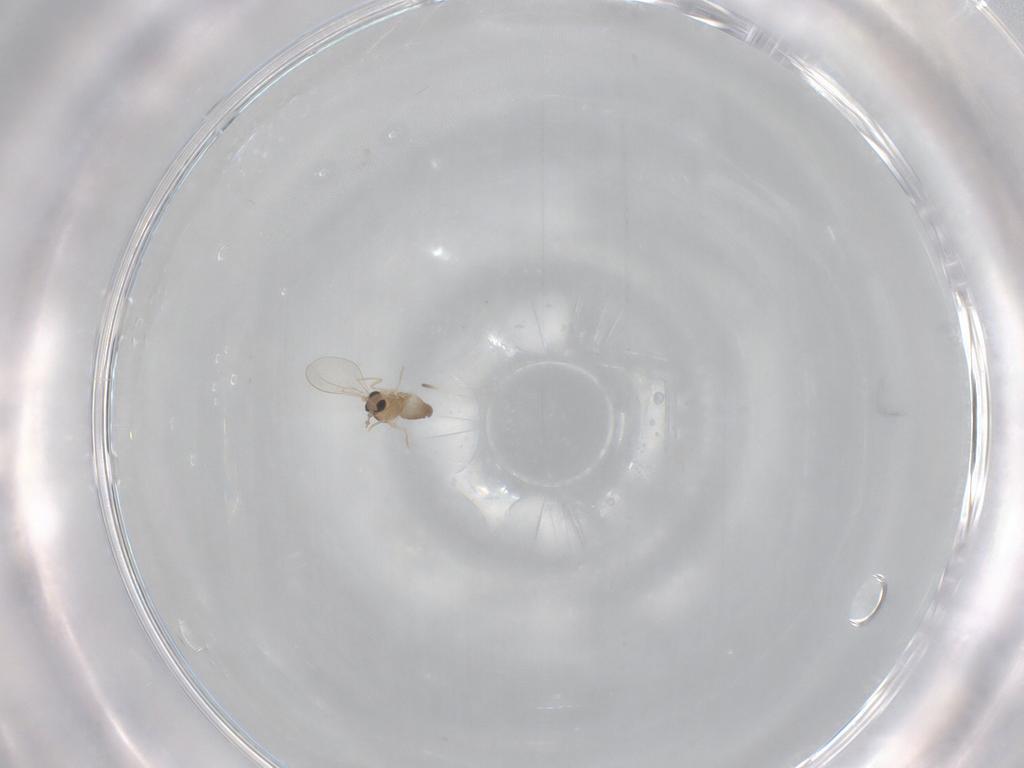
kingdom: Animalia
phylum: Arthropoda
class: Insecta
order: Diptera
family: Cecidomyiidae
